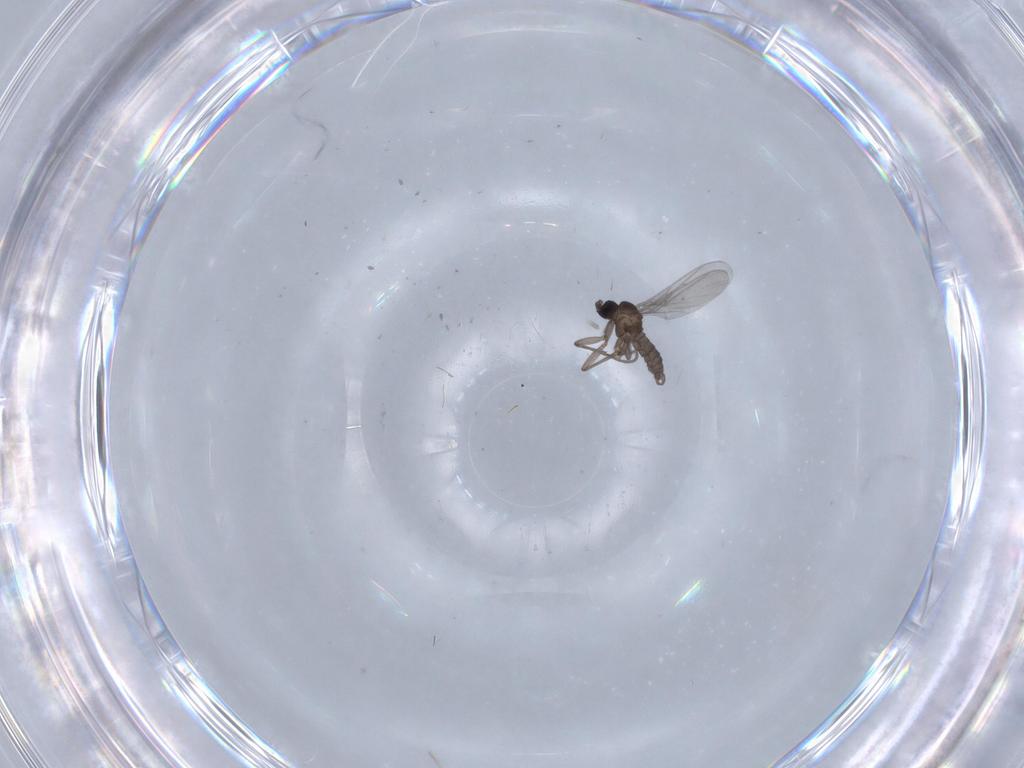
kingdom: Animalia
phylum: Arthropoda
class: Insecta
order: Diptera
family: Sciaridae
